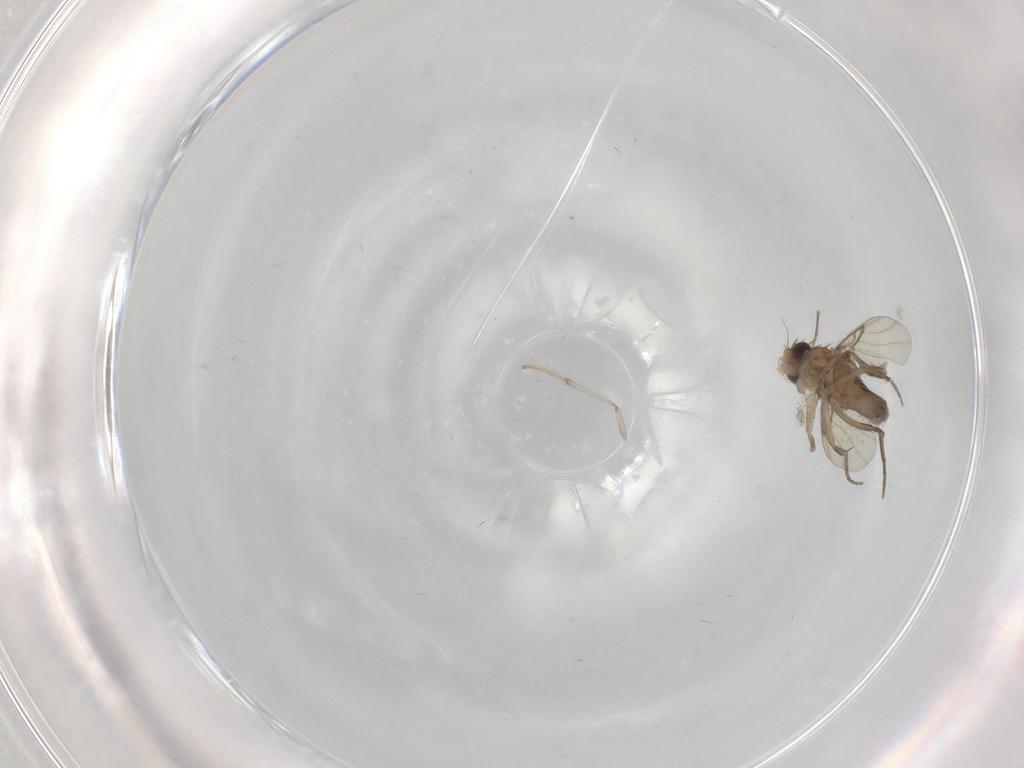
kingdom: Animalia
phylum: Arthropoda
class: Insecta
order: Diptera
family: Phoridae
